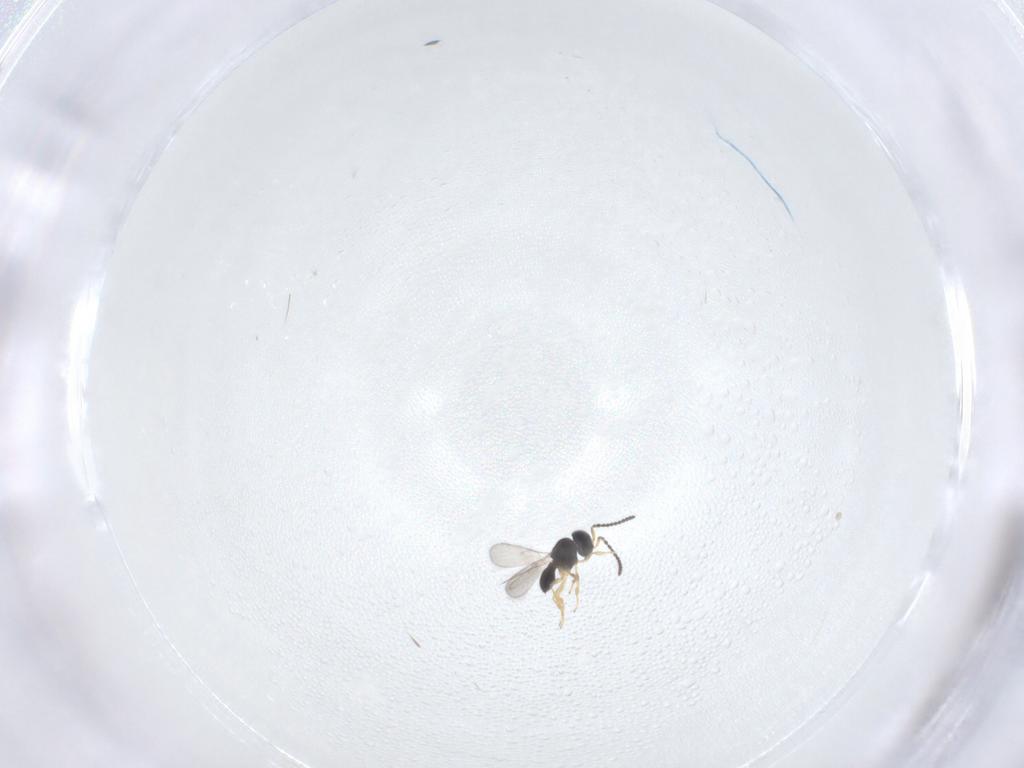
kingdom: Animalia
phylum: Arthropoda
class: Insecta
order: Hymenoptera
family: Scelionidae
